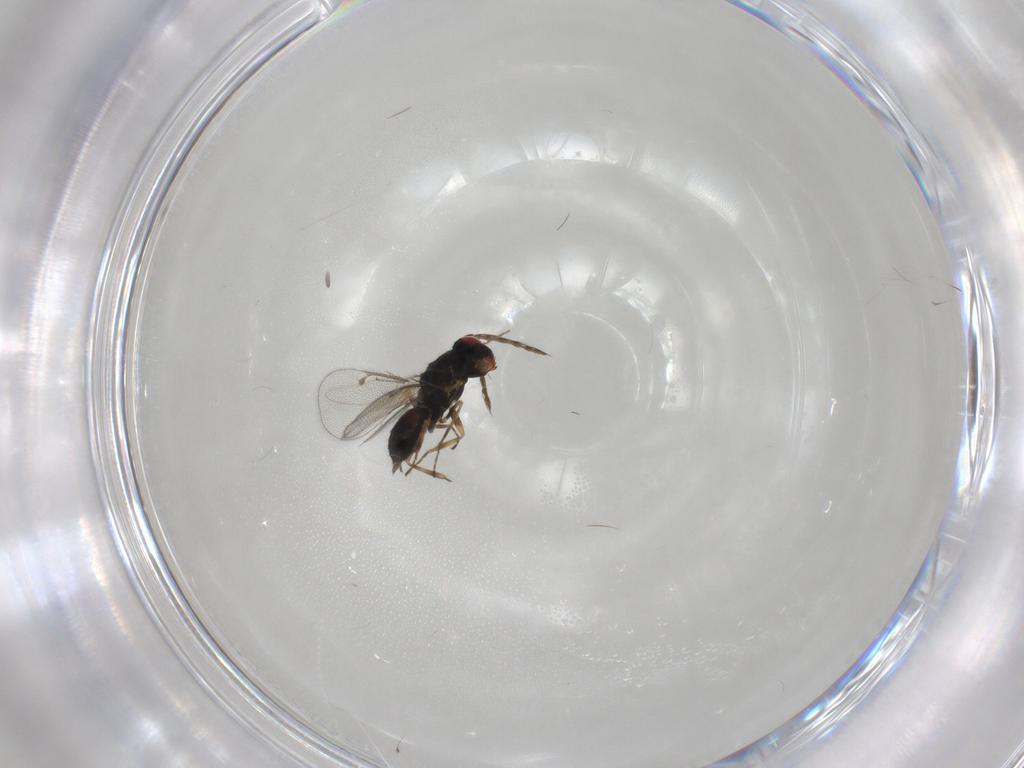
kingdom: Animalia
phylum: Arthropoda
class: Insecta
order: Hymenoptera
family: Eulophidae
